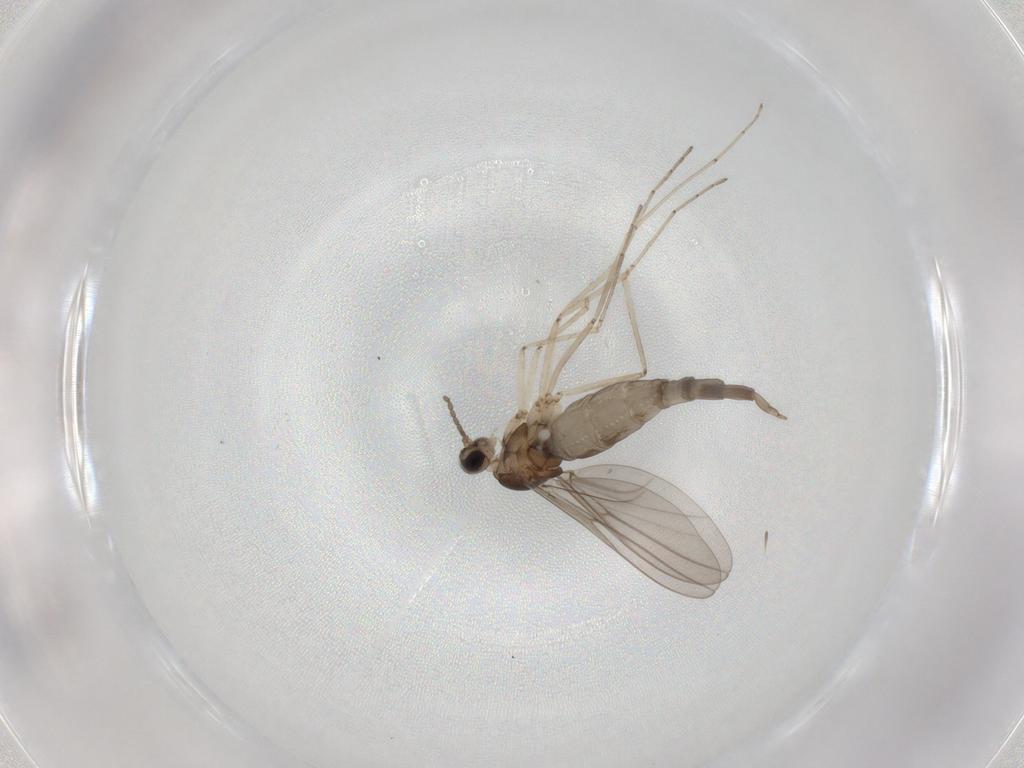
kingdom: Animalia
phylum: Arthropoda
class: Insecta
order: Diptera
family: Cecidomyiidae
